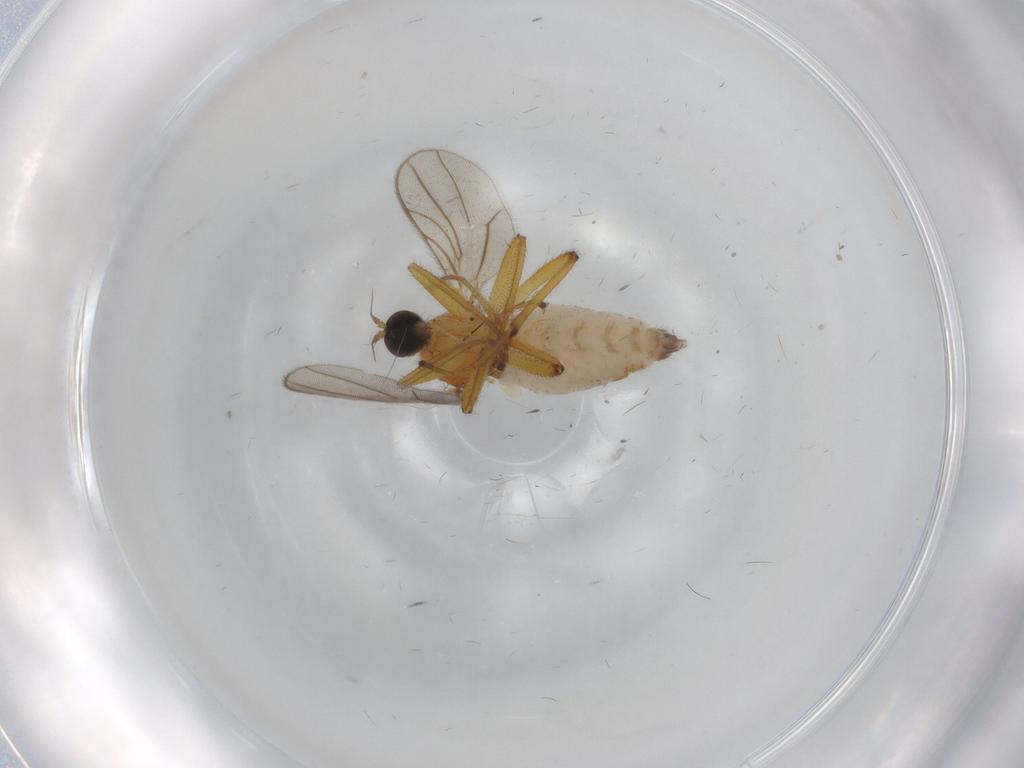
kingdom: Animalia
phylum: Arthropoda
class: Insecta
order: Diptera
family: Hybotidae
